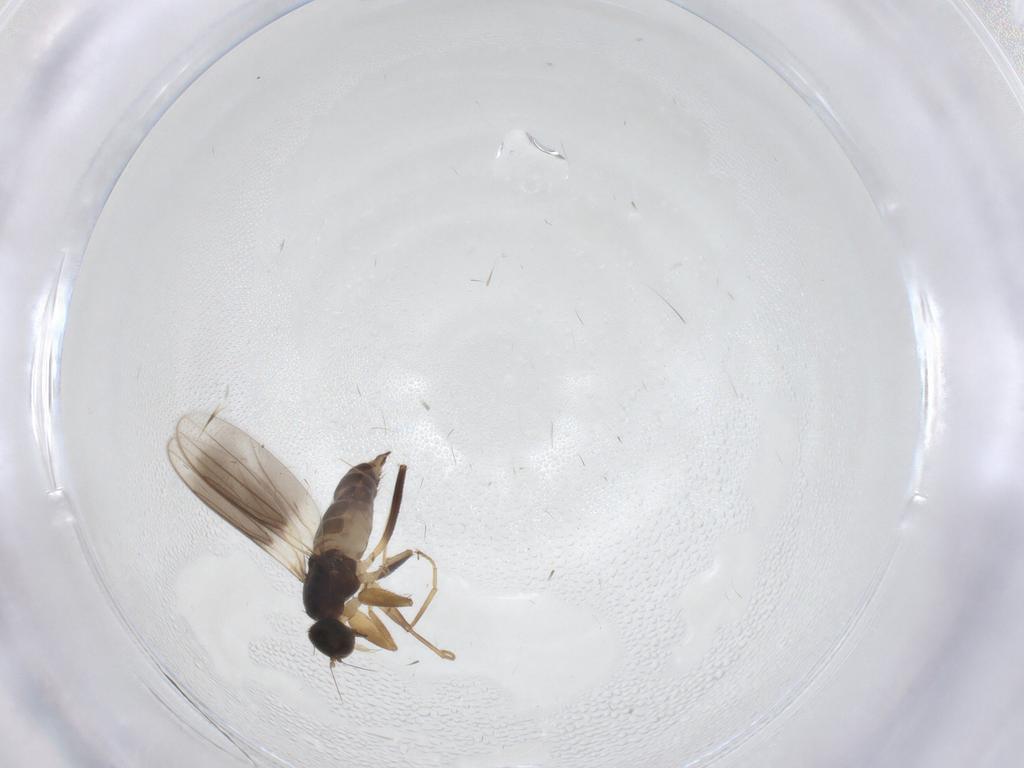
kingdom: Animalia
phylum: Arthropoda
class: Insecta
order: Diptera
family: Hybotidae
